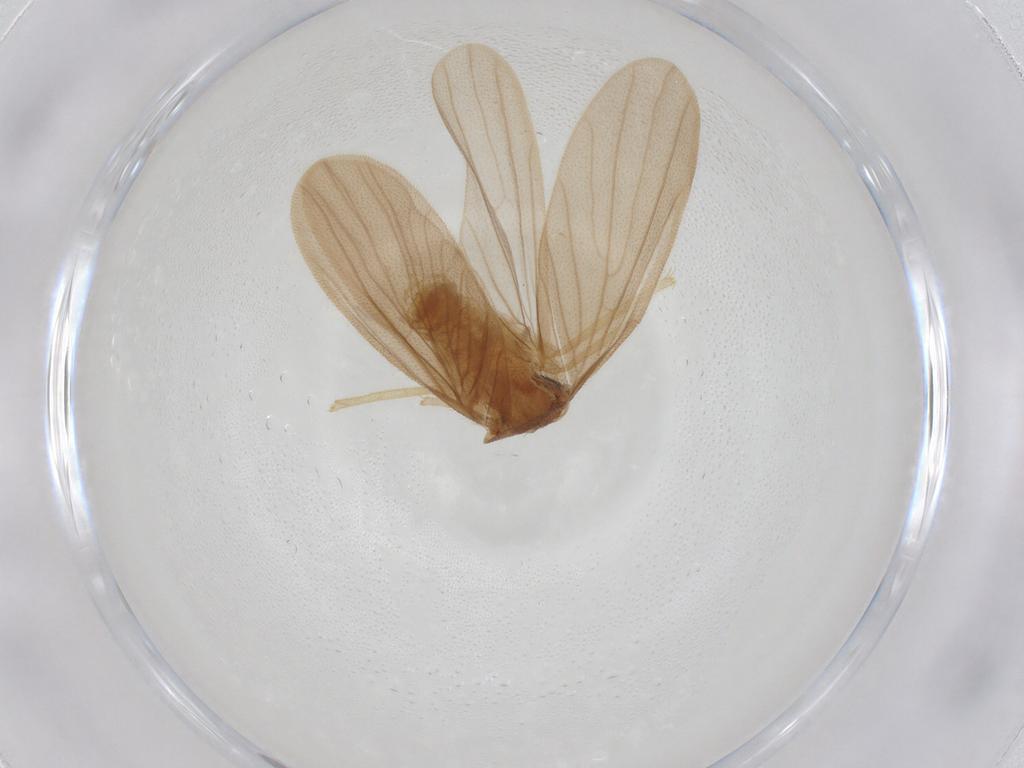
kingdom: Animalia
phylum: Arthropoda
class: Insecta
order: Blattodea
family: Nocticolidae
